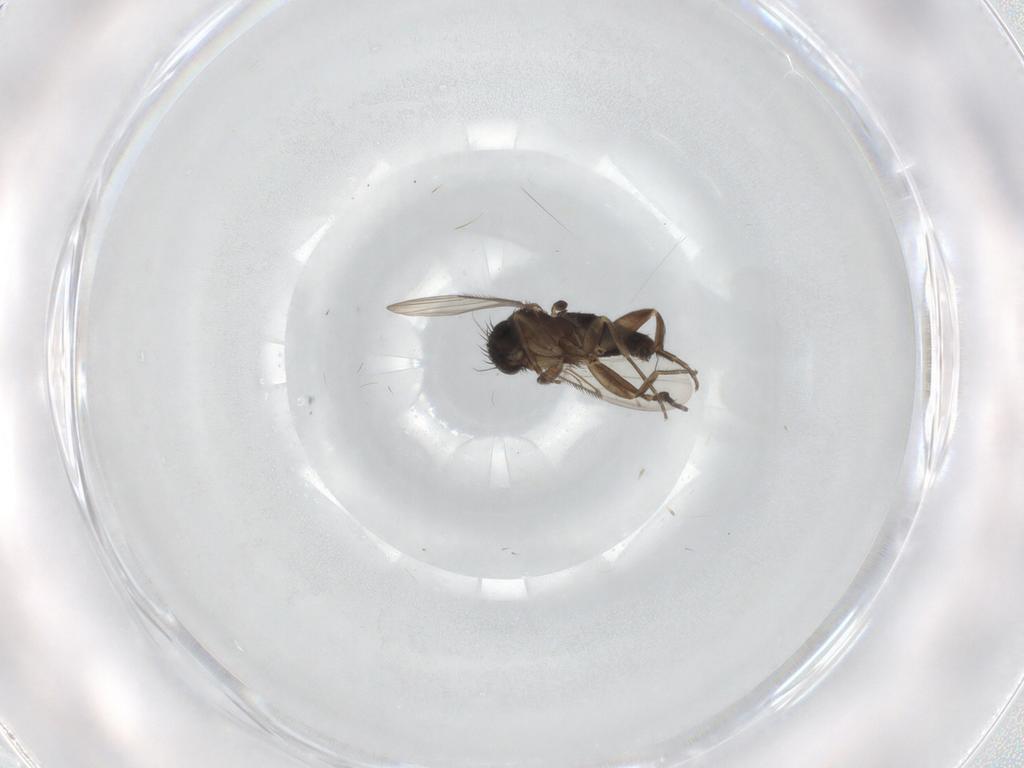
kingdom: Animalia
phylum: Arthropoda
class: Insecta
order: Diptera
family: Phoridae
